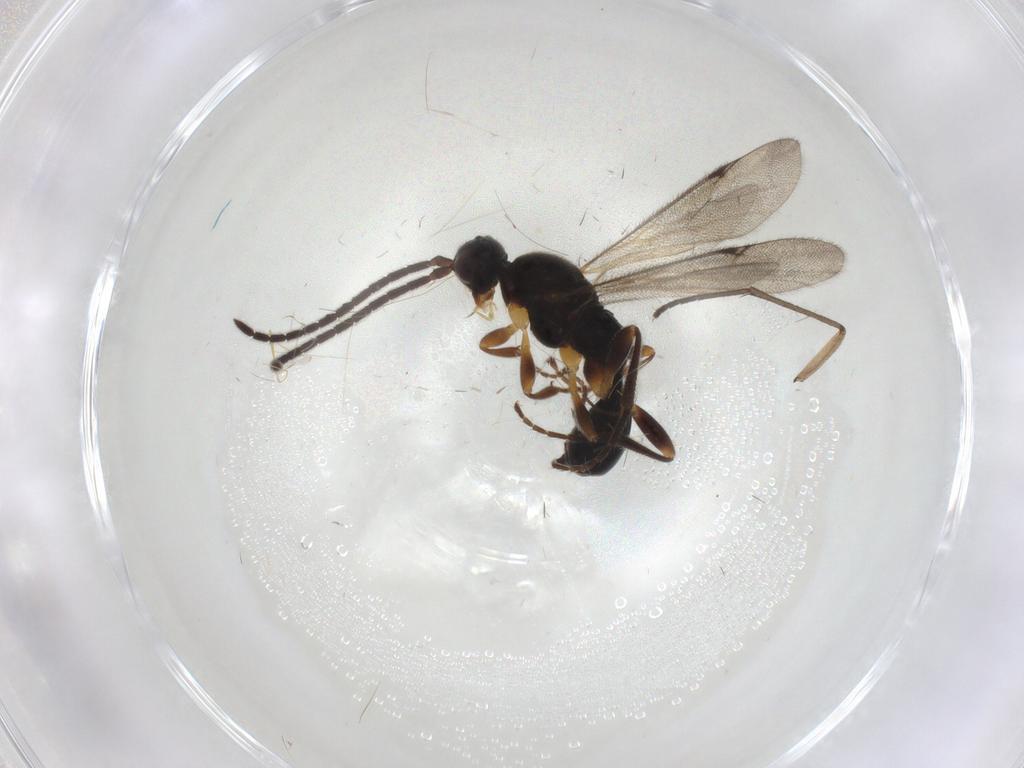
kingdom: Animalia
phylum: Arthropoda
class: Insecta
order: Hymenoptera
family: Proctotrupidae
